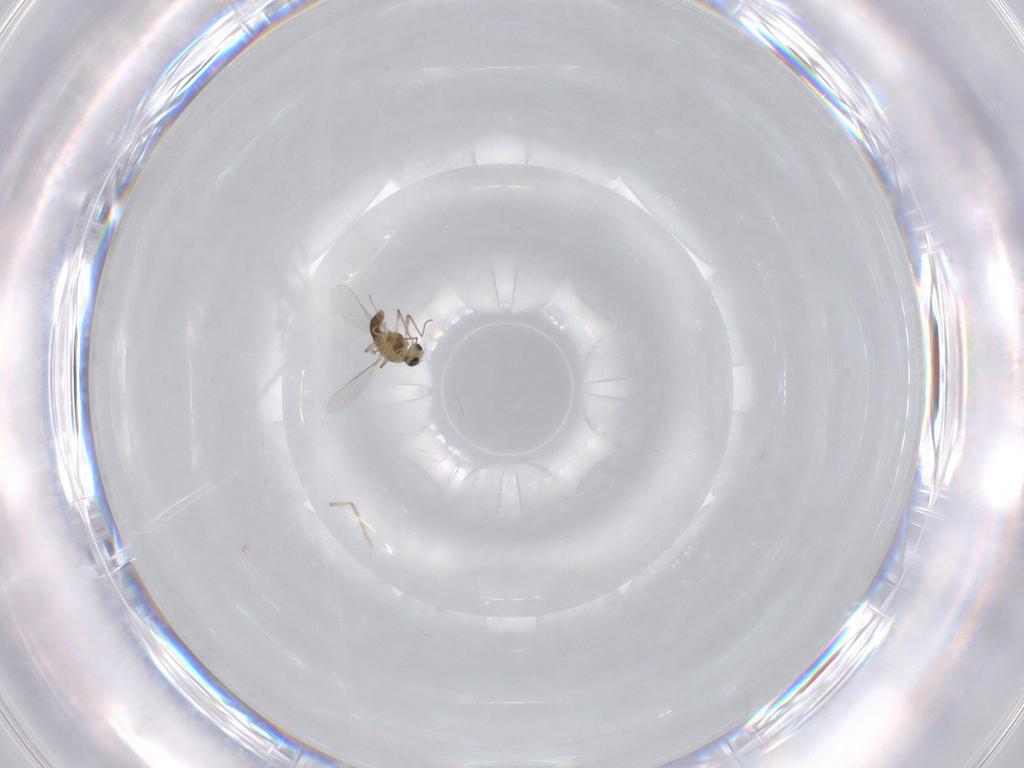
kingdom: Animalia
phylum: Arthropoda
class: Insecta
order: Diptera
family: Chironomidae
